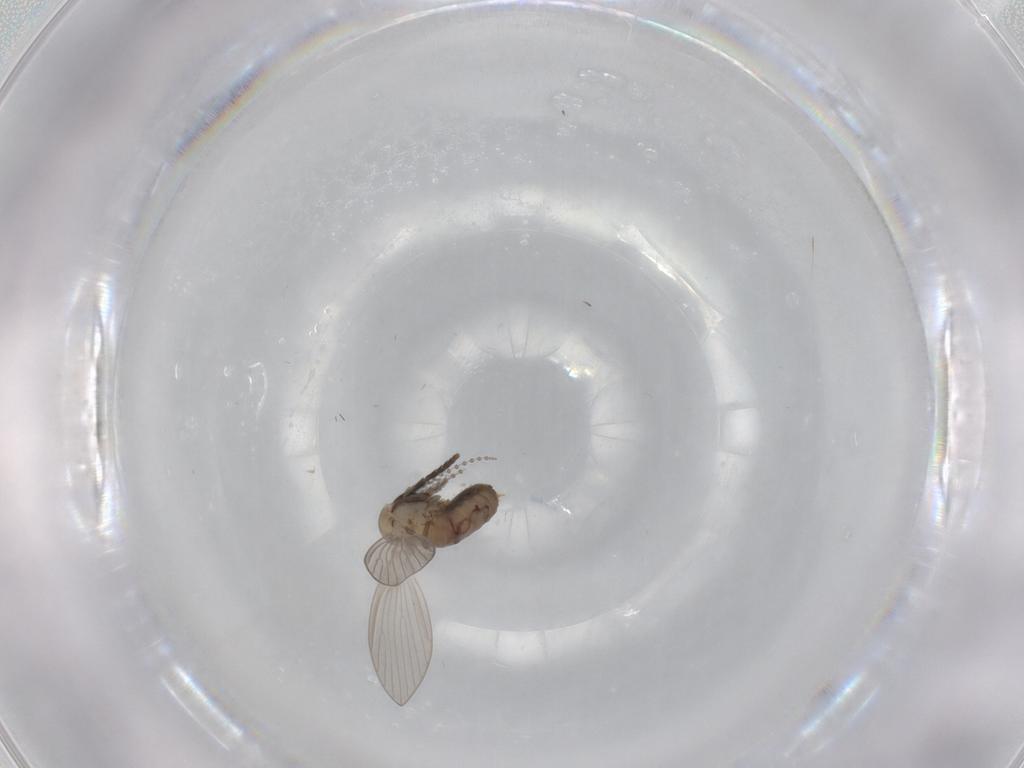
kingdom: Animalia
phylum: Arthropoda
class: Insecta
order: Diptera
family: Psychodidae
